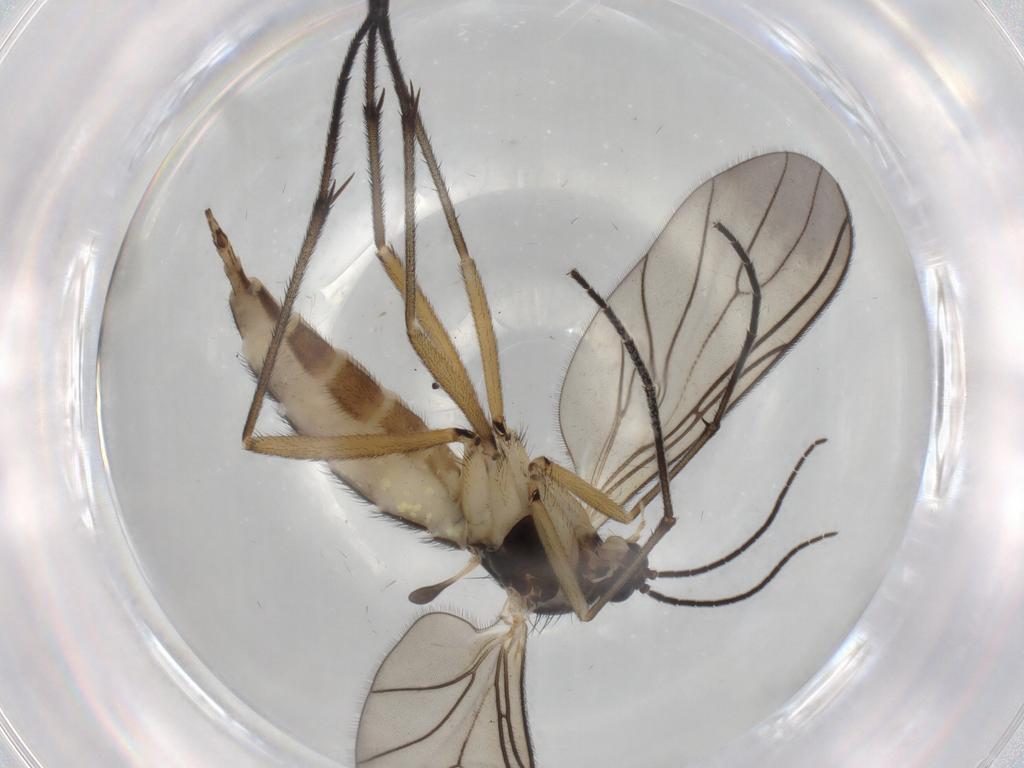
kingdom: Animalia
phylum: Arthropoda
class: Insecta
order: Diptera
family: Sciaridae
